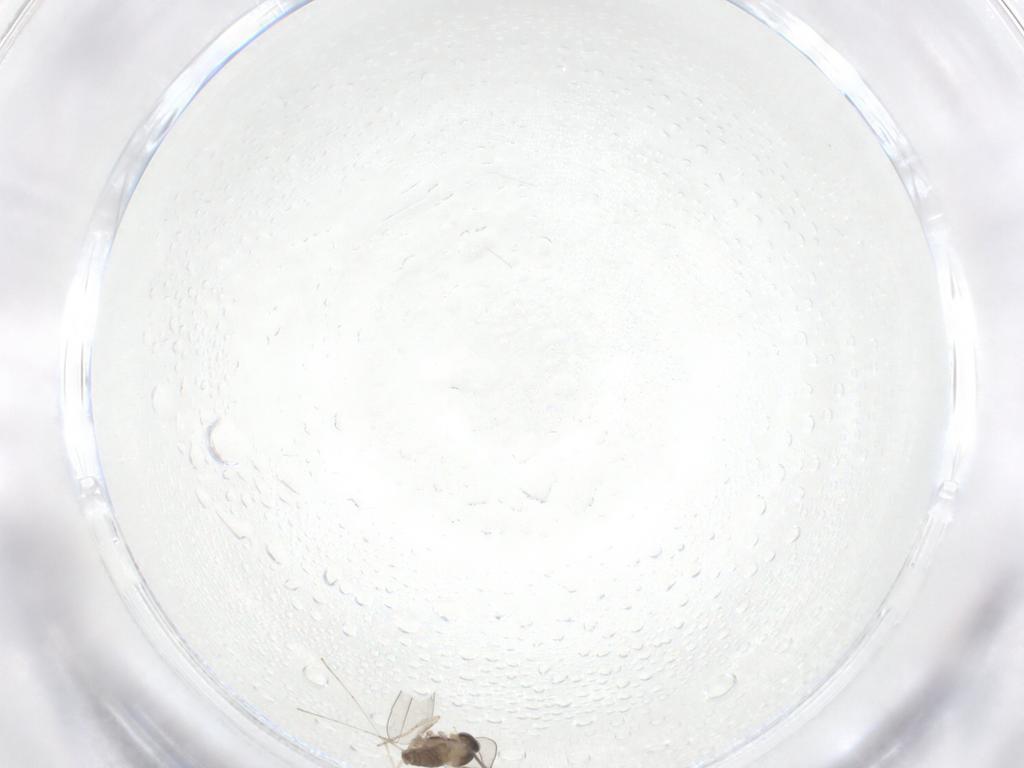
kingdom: Animalia
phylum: Arthropoda
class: Insecta
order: Diptera
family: Cecidomyiidae
